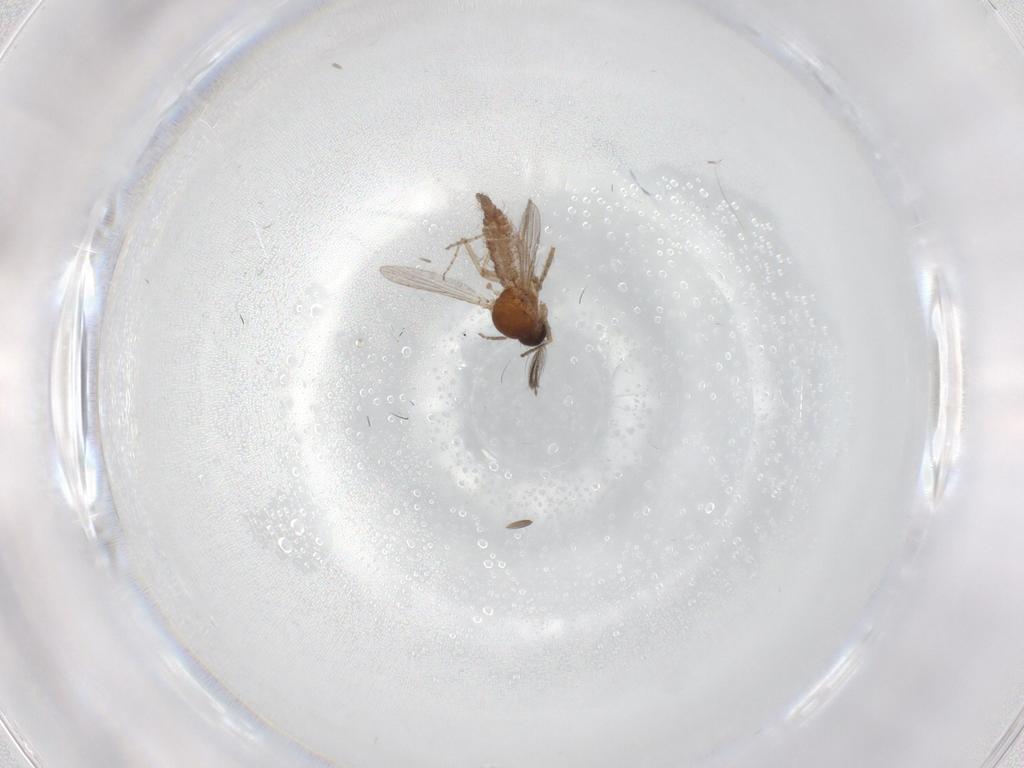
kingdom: Animalia
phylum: Arthropoda
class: Insecta
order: Diptera
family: Ceratopogonidae
